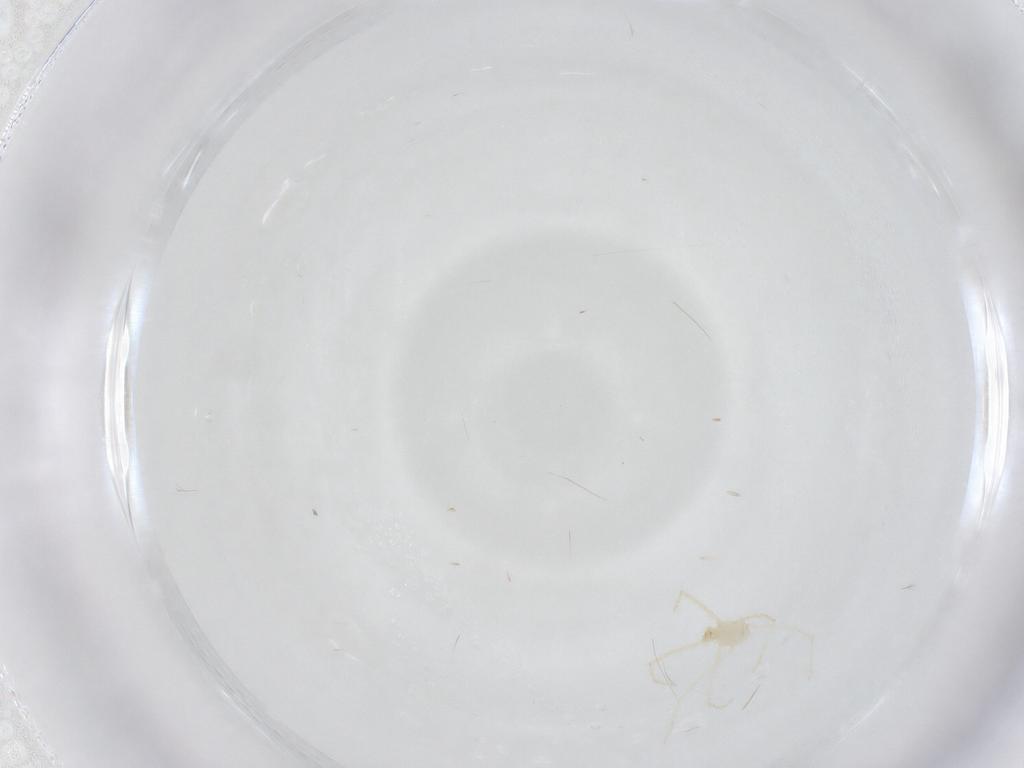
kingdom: Animalia
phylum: Arthropoda
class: Arachnida
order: Trombidiformes
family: Erythraeidae
